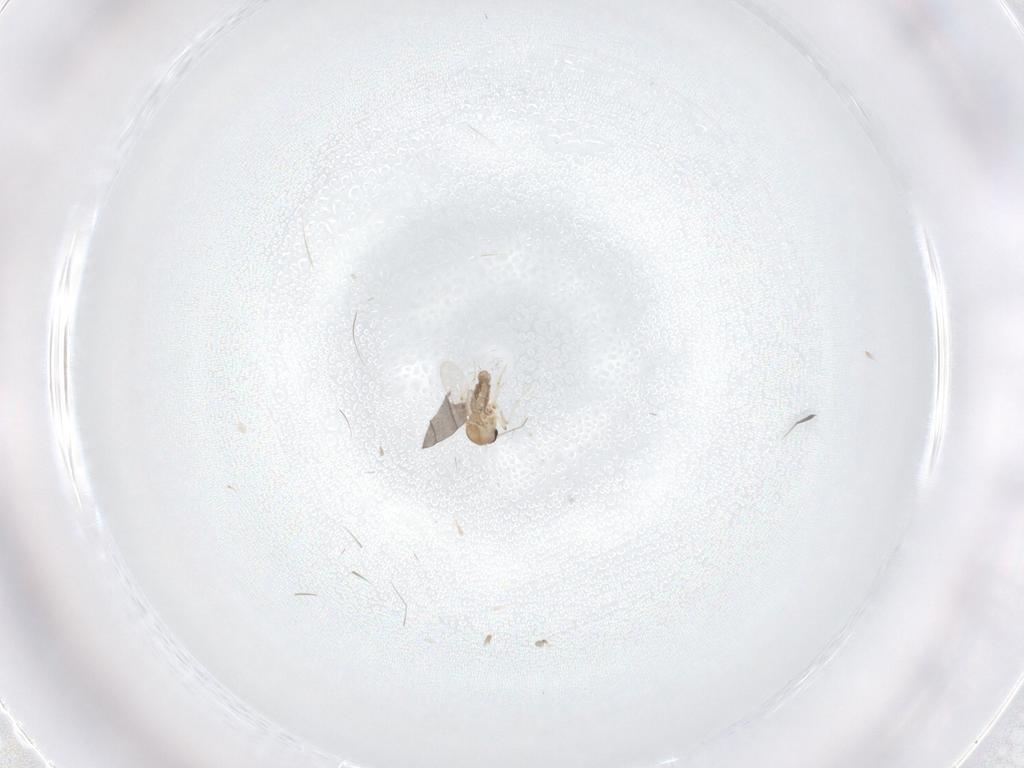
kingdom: Animalia
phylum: Arthropoda
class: Insecta
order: Diptera
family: Ceratopogonidae
